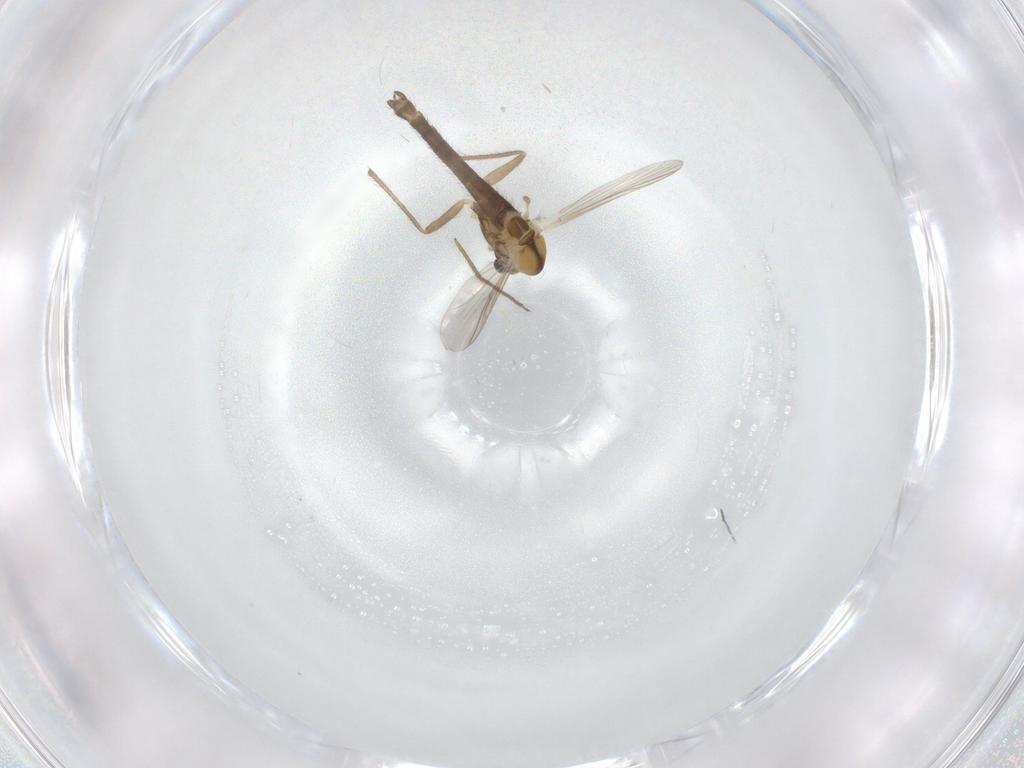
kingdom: Animalia
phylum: Arthropoda
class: Insecta
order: Diptera
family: Chironomidae
